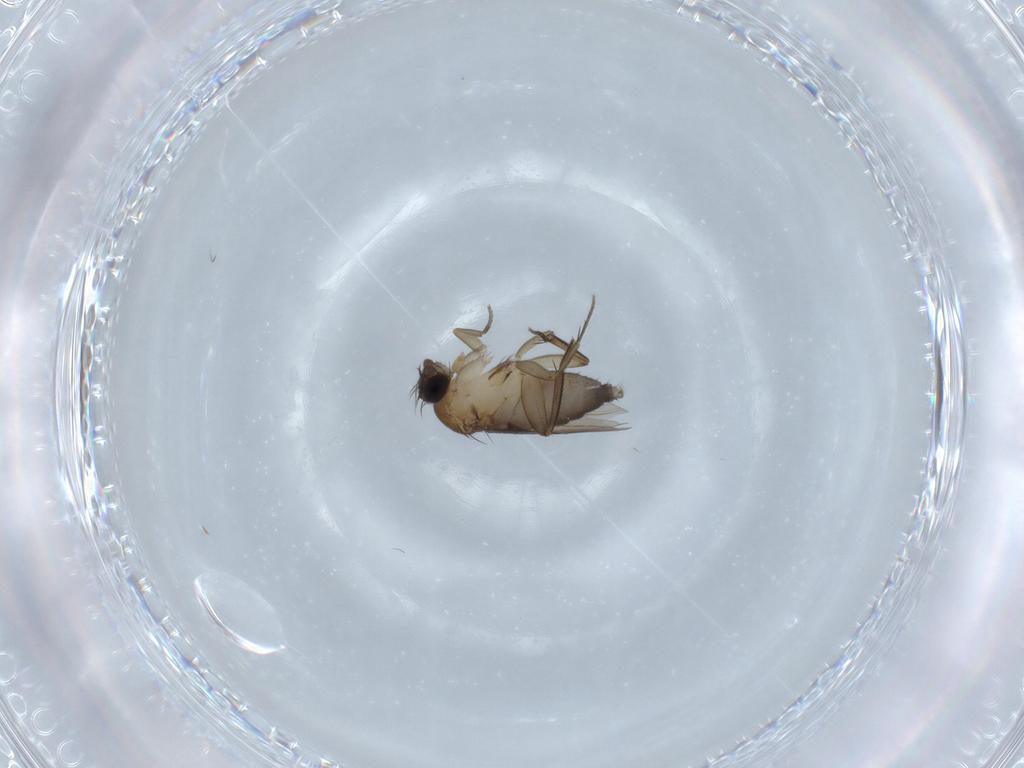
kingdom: Animalia
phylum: Arthropoda
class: Insecta
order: Diptera
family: Phoridae
